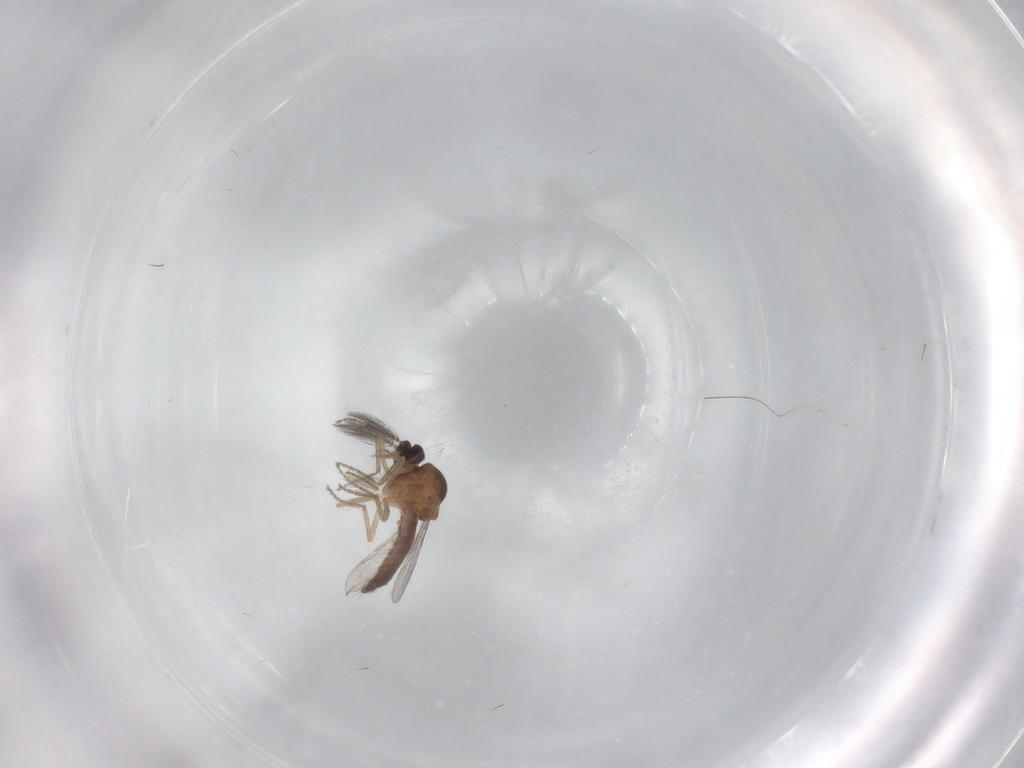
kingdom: Animalia
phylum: Arthropoda
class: Insecta
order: Diptera
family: Ceratopogonidae
